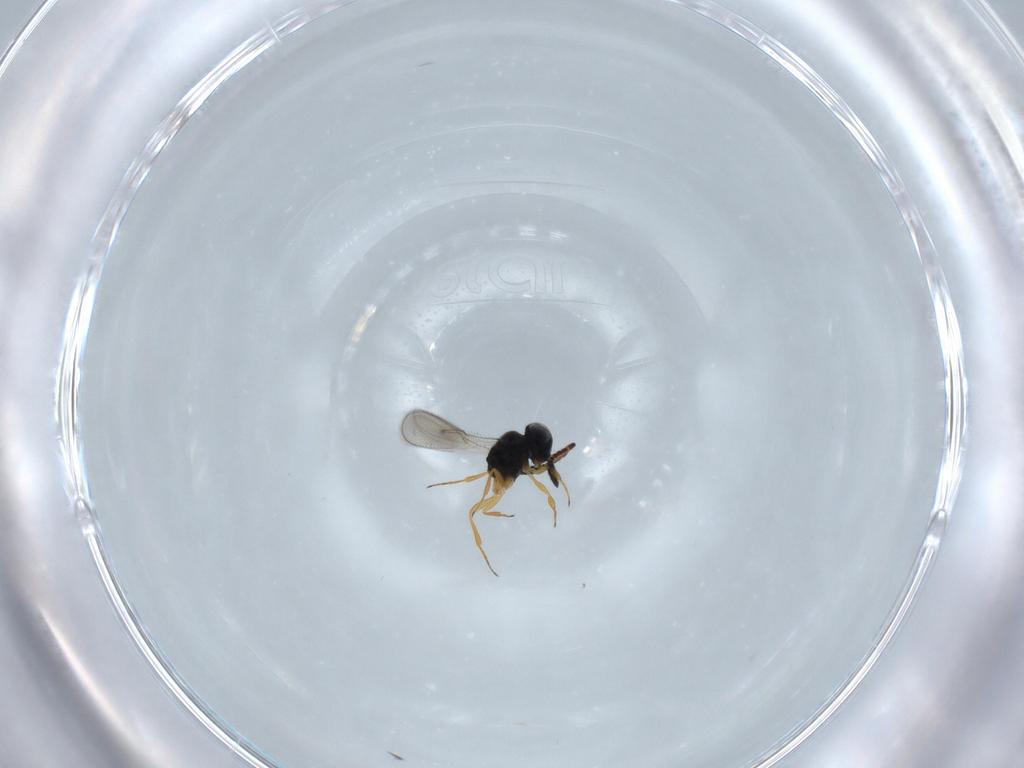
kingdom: Animalia
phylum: Arthropoda
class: Insecta
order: Hymenoptera
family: Scelionidae
